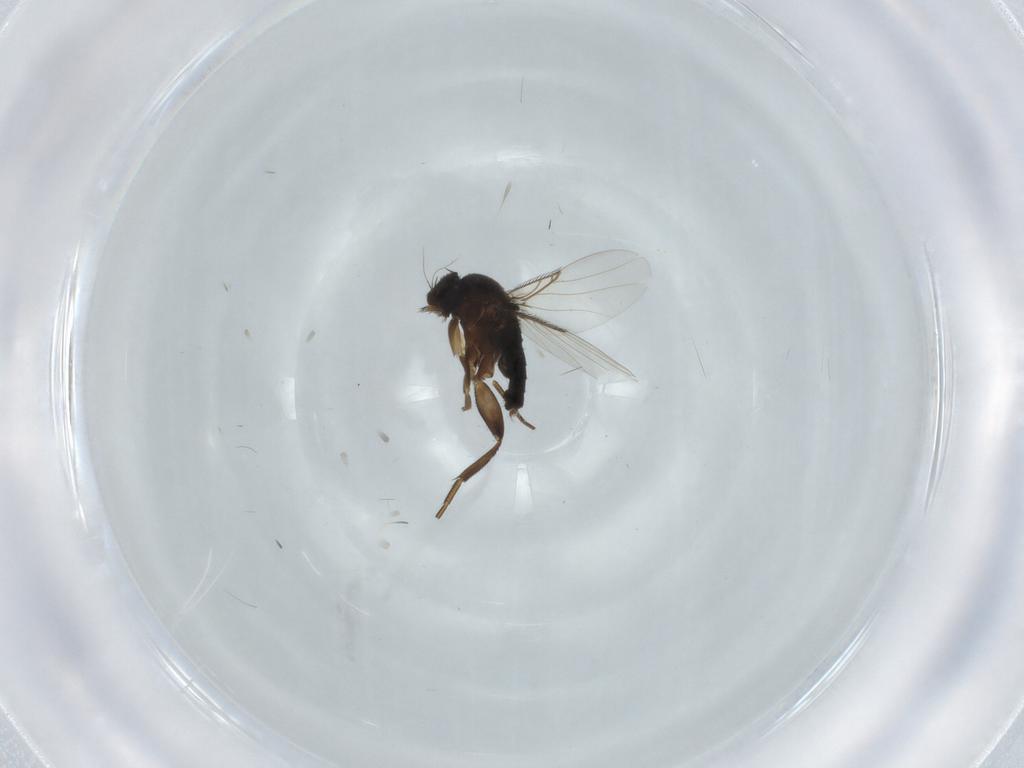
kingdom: Animalia
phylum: Arthropoda
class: Insecta
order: Diptera
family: Phoridae
